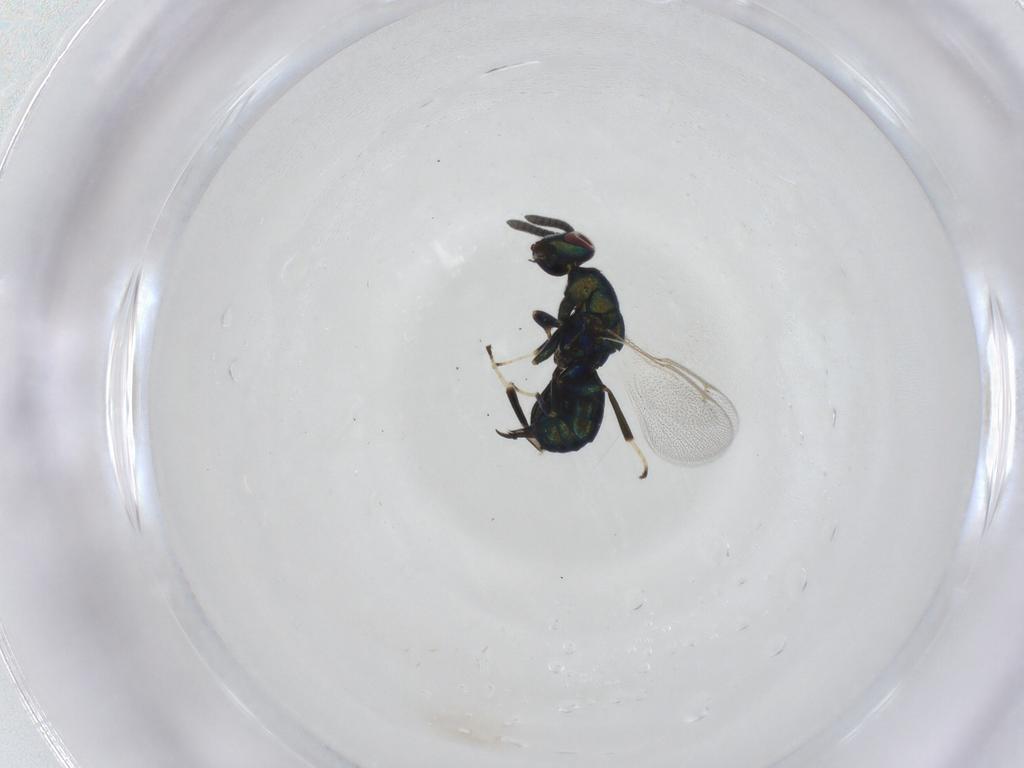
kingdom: Animalia
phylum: Arthropoda
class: Insecta
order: Hymenoptera
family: Torymidae
